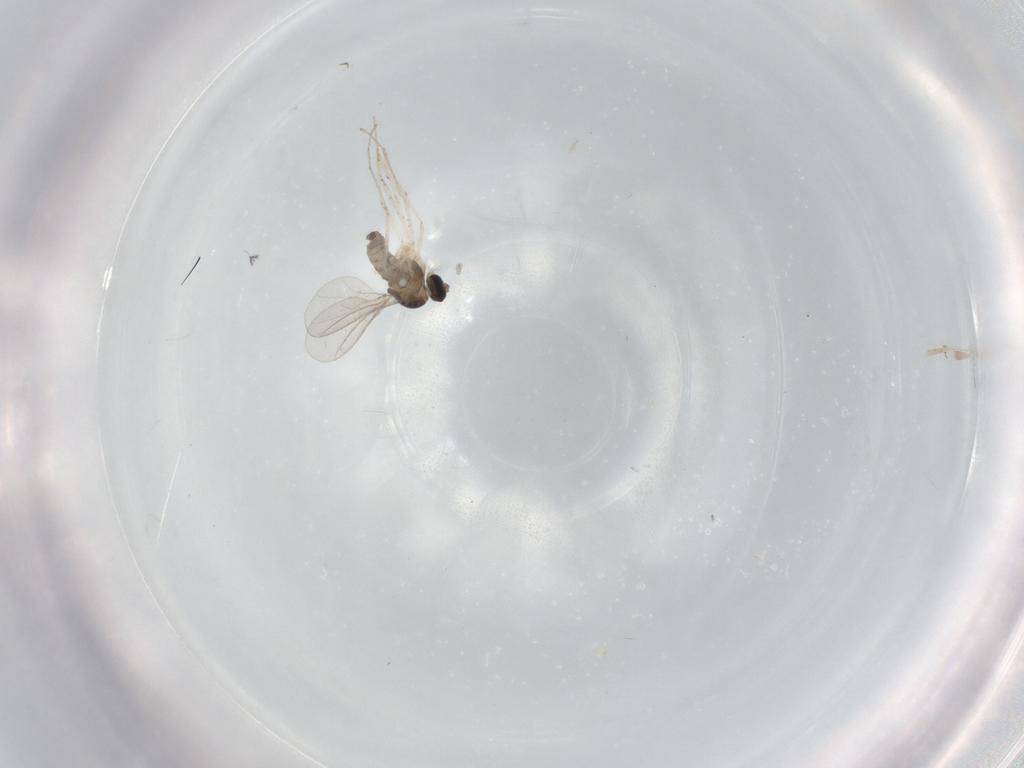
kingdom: Animalia
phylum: Arthropoda
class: Insecta
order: Diptera
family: Cecidomyiidae
